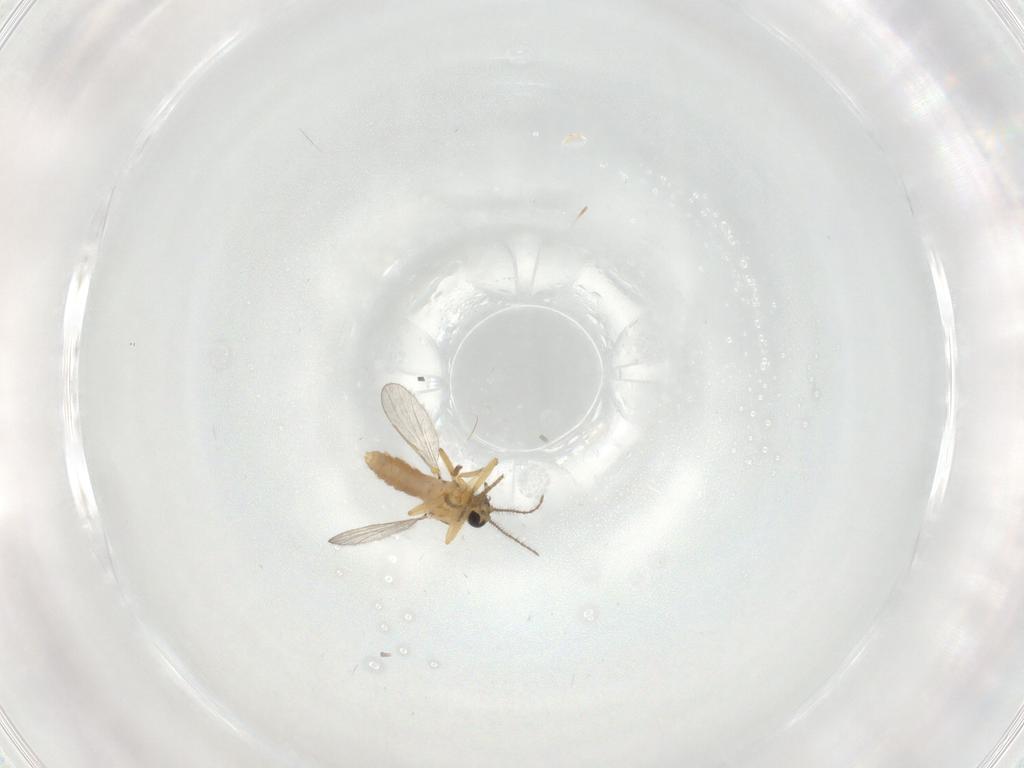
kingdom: Animalia
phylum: Arthropoda
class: Insecta
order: Diptera
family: Ceratopogonidae
